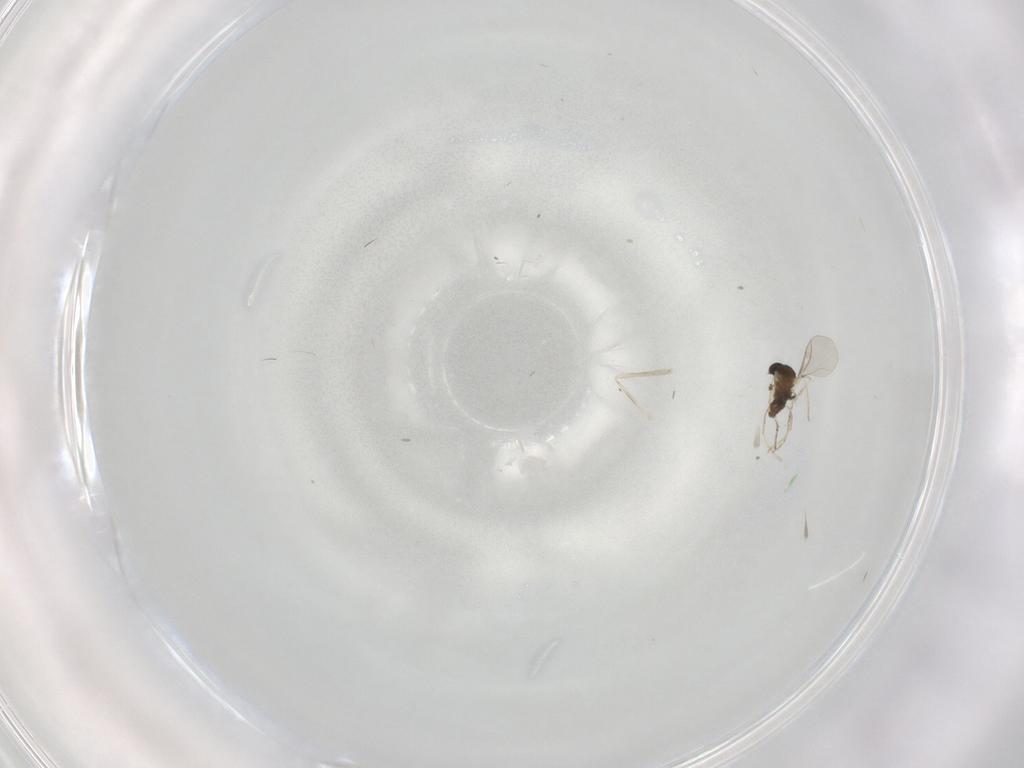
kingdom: Animalia
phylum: Arthropoda
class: Insecta
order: Diptera
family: Cecidomyiidae
